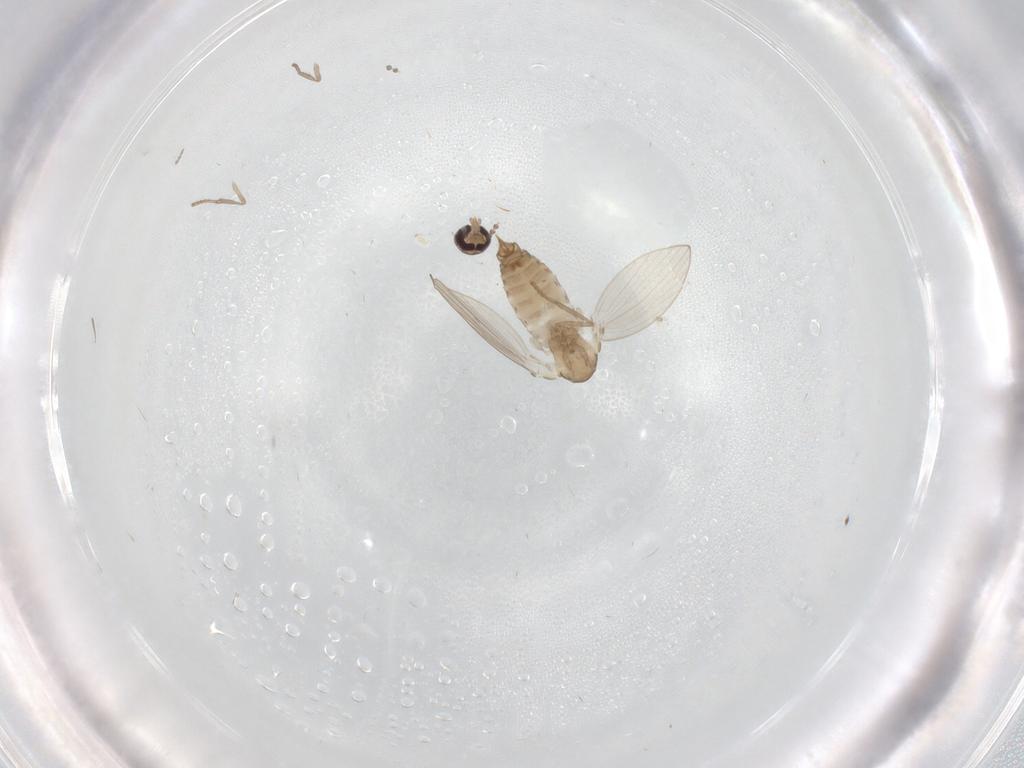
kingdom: Animalia
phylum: Arthropoda
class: Insecta
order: Diptera
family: Psychodidae
